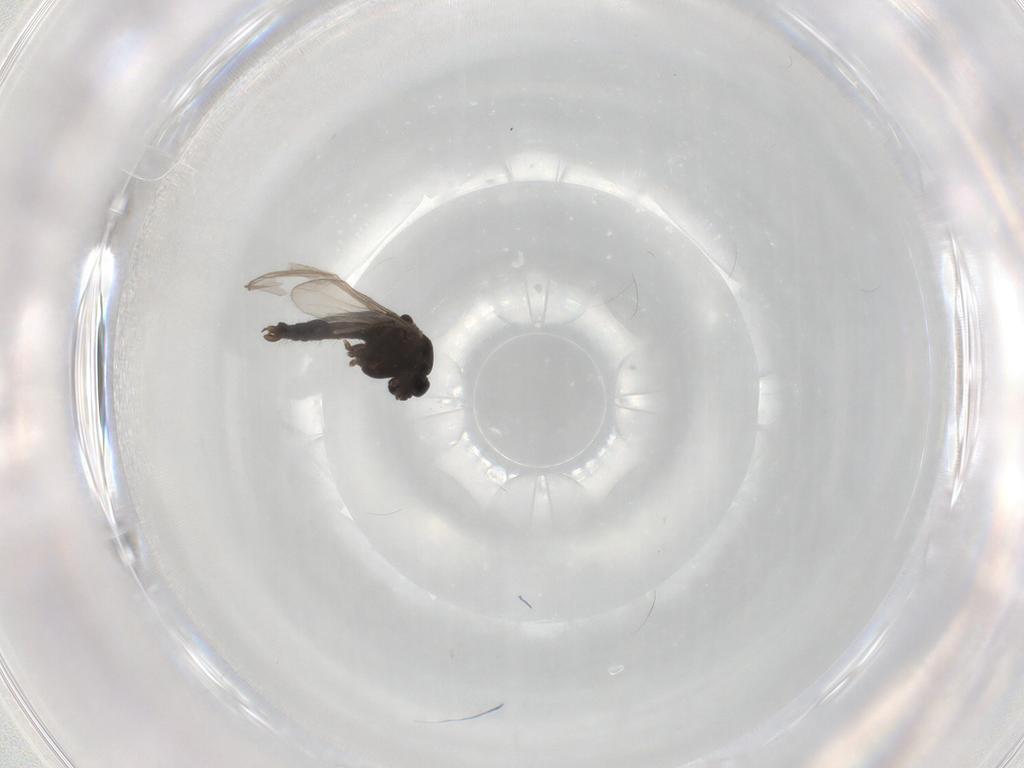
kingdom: Animalia
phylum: Arthropoda
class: Insecta
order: Diptera
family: Chironomidae
